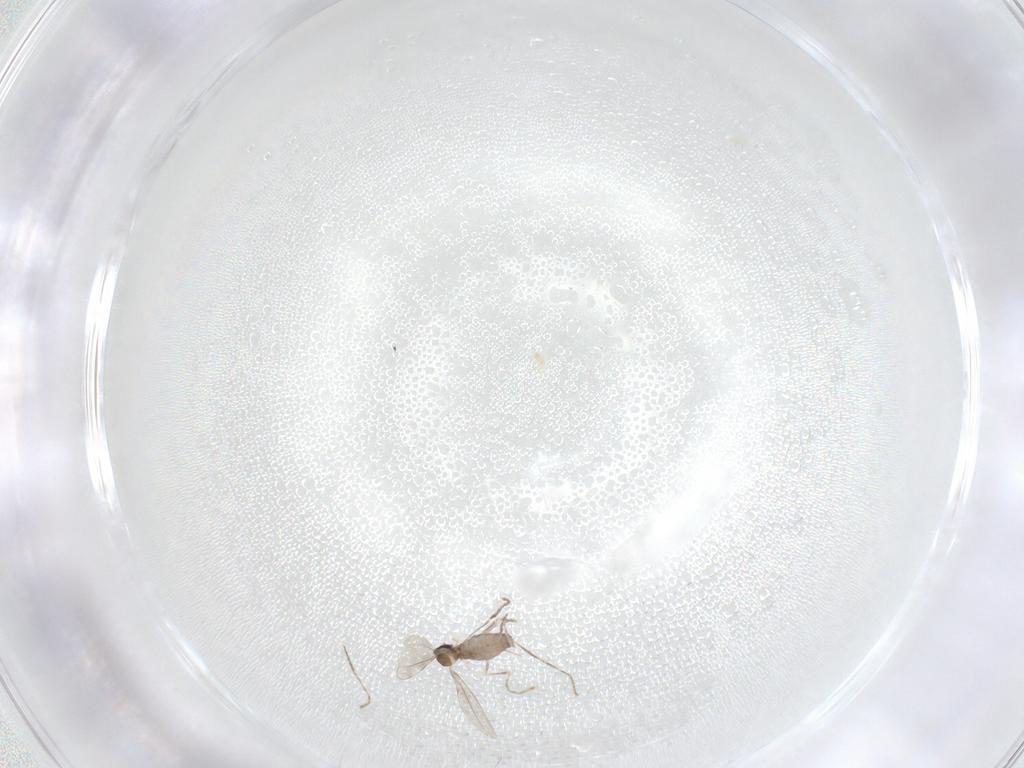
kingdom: Animalia
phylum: Arthropoda
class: Insecta
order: Diptera
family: Cecidomyiidae
